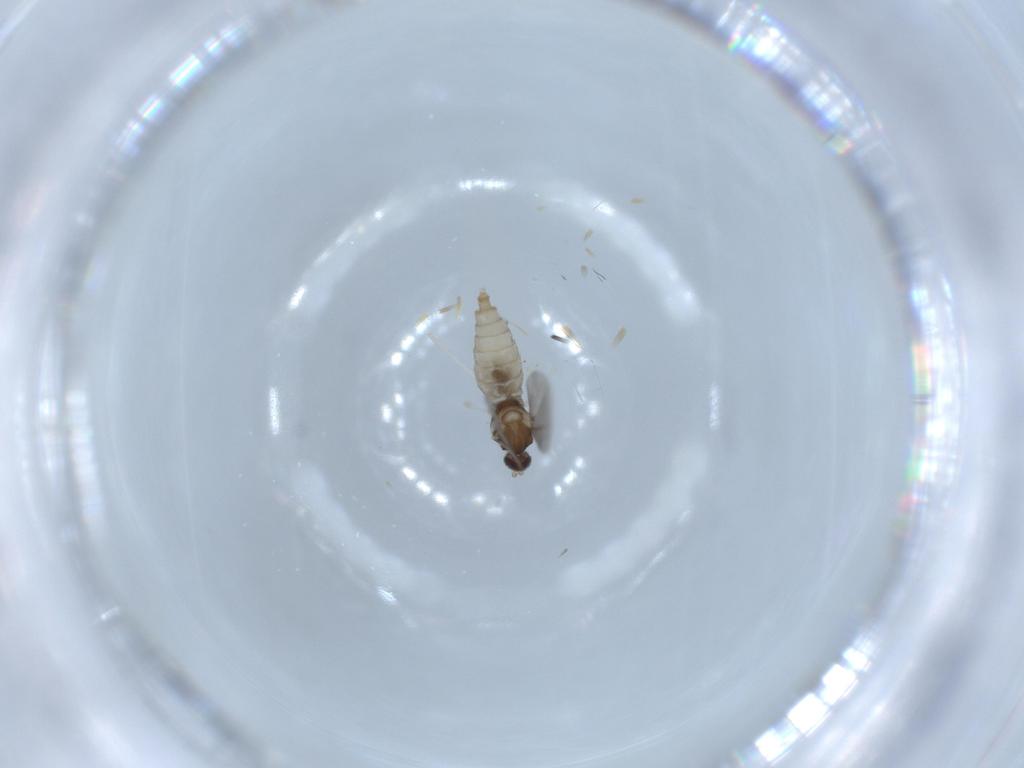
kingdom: Animalia
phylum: Arthropoda
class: Insecta
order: Diptera
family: Cecidomyiidae
